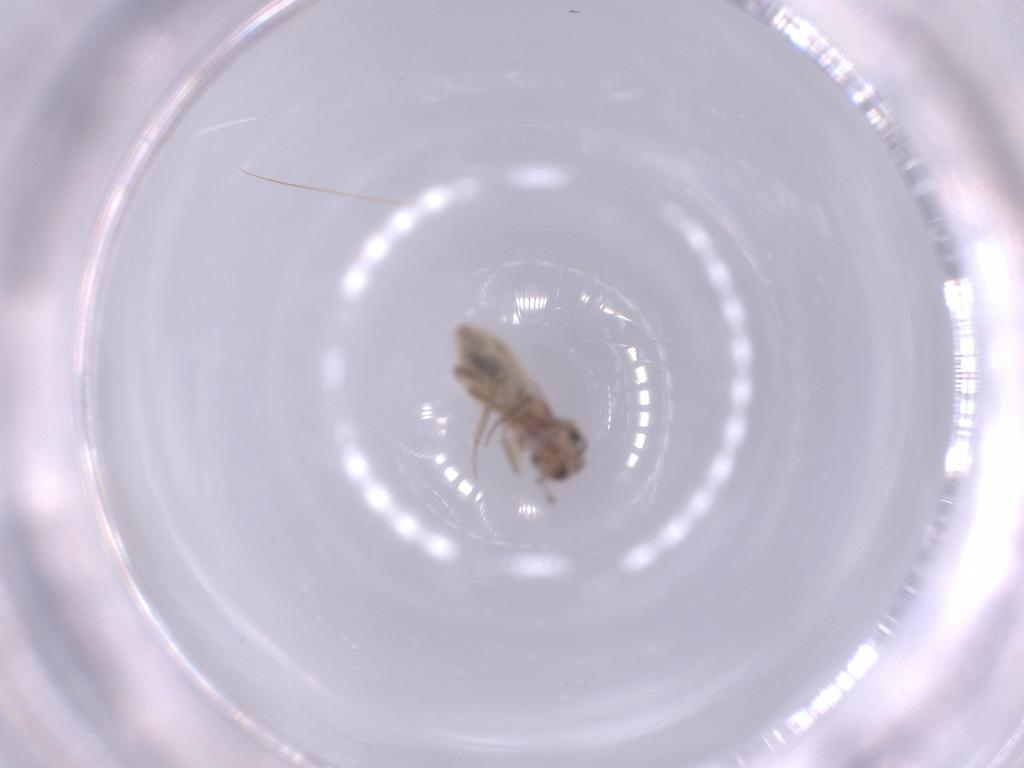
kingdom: Animalia
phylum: Arthropoda
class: Insecta
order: Psocodea
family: Lepidopsocidae
